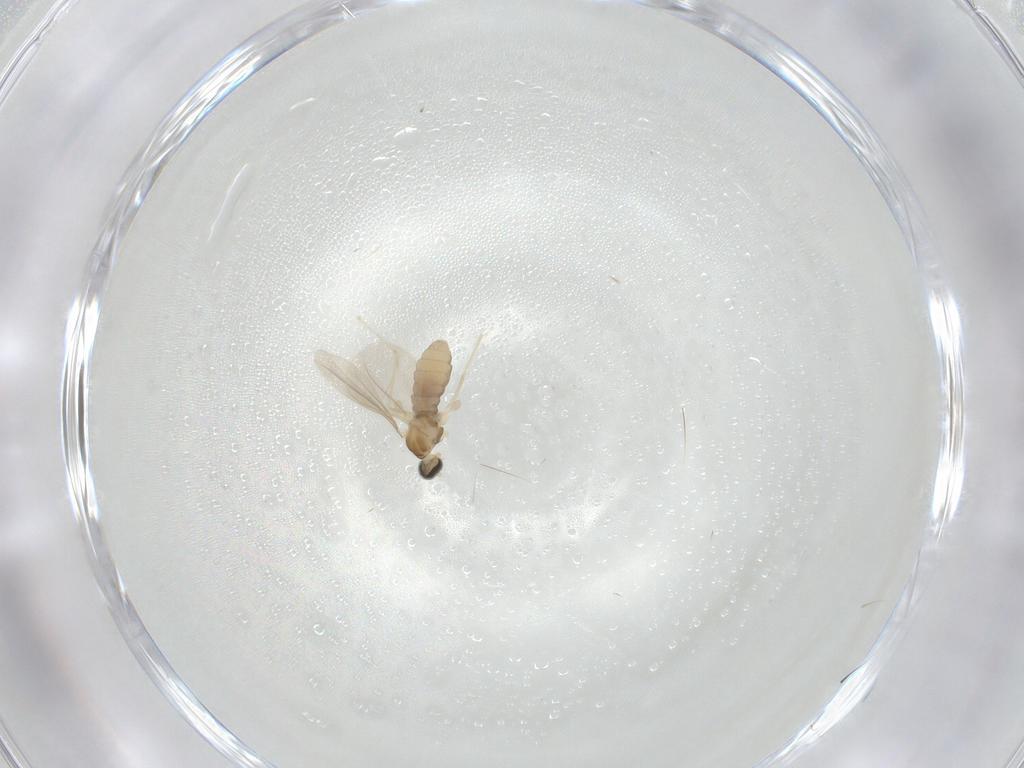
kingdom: Animalia
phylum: Arthropoda
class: Insecta
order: Diptera
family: Cecidomyiidae
